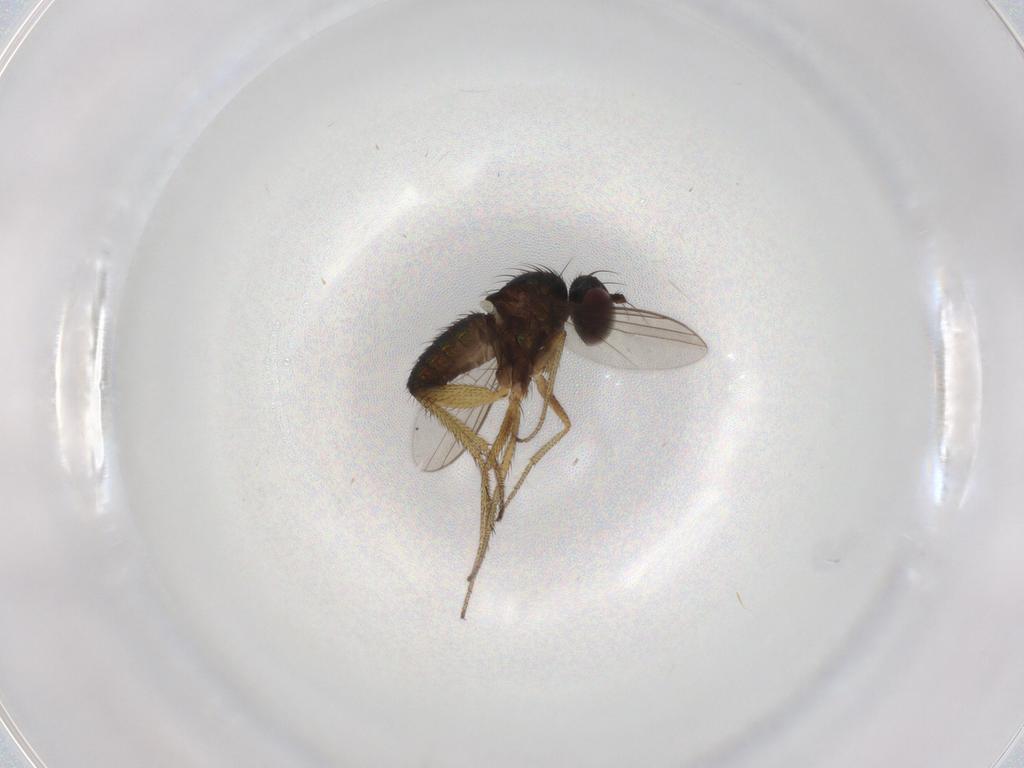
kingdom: Animalia
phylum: Arthropoda
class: Insecta
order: Diptera
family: Dolichopodidae
